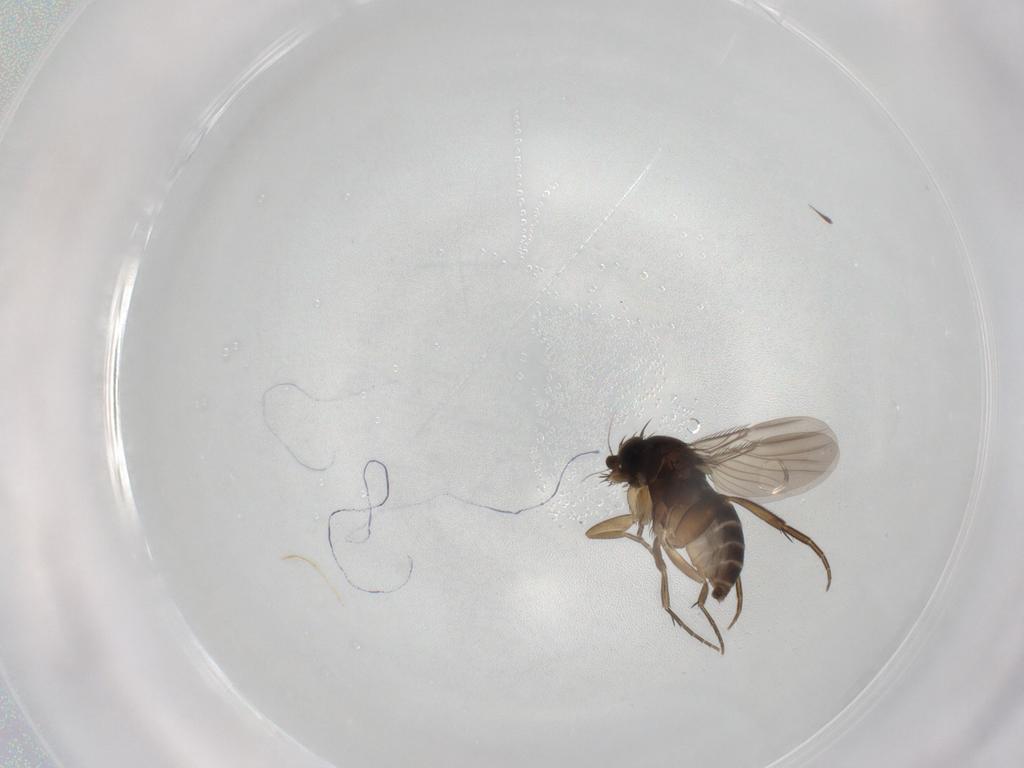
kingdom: Animalia
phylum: Arthropoda
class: Insecta
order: Diptera
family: Phoridae
